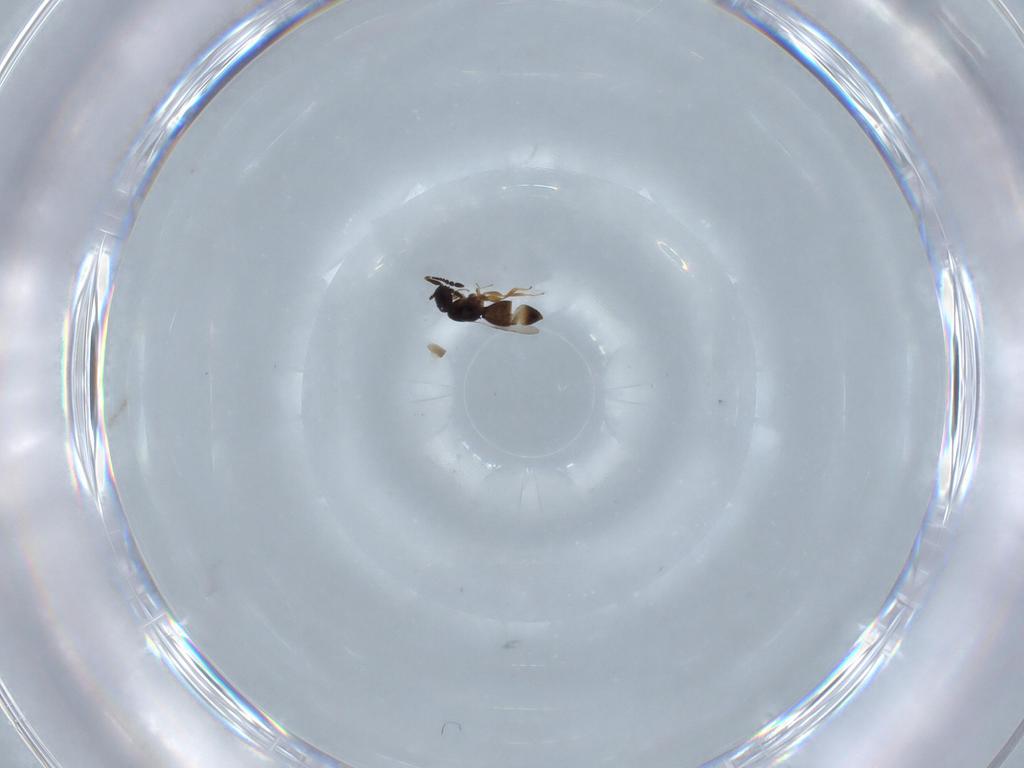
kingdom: Animalia
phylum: Arthropoda
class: Insecta
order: Hymenoptera
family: Ceraphronidae
